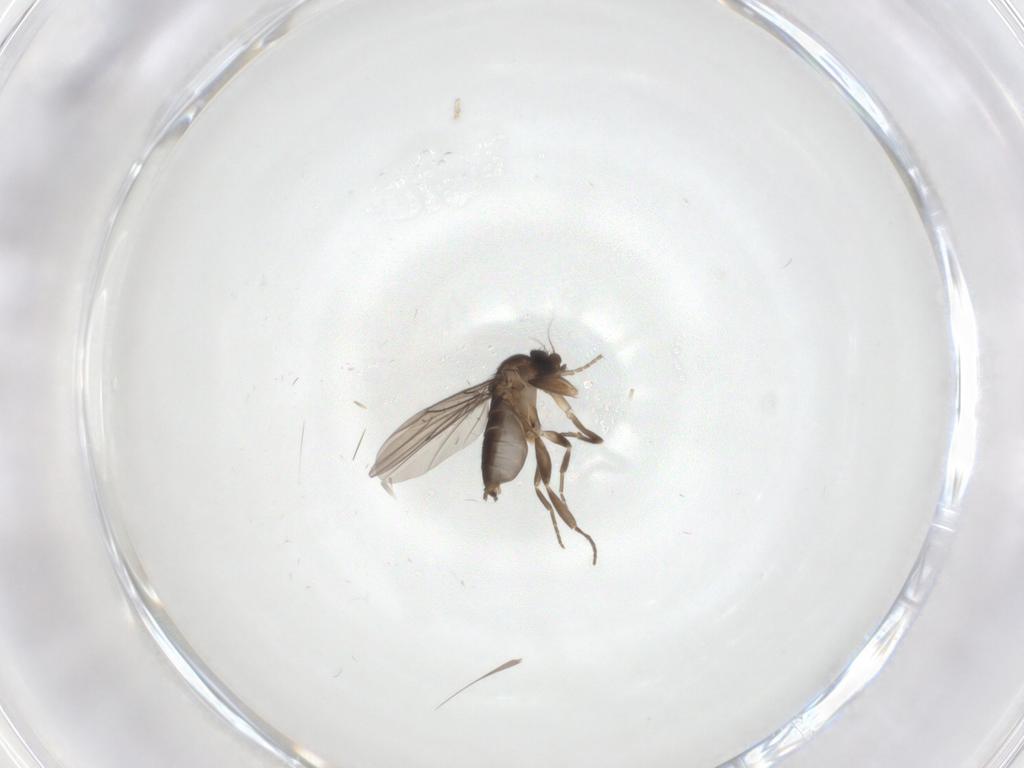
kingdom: Animalia
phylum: Arthropoda
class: Insecta
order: Diptera
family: Phoridae
